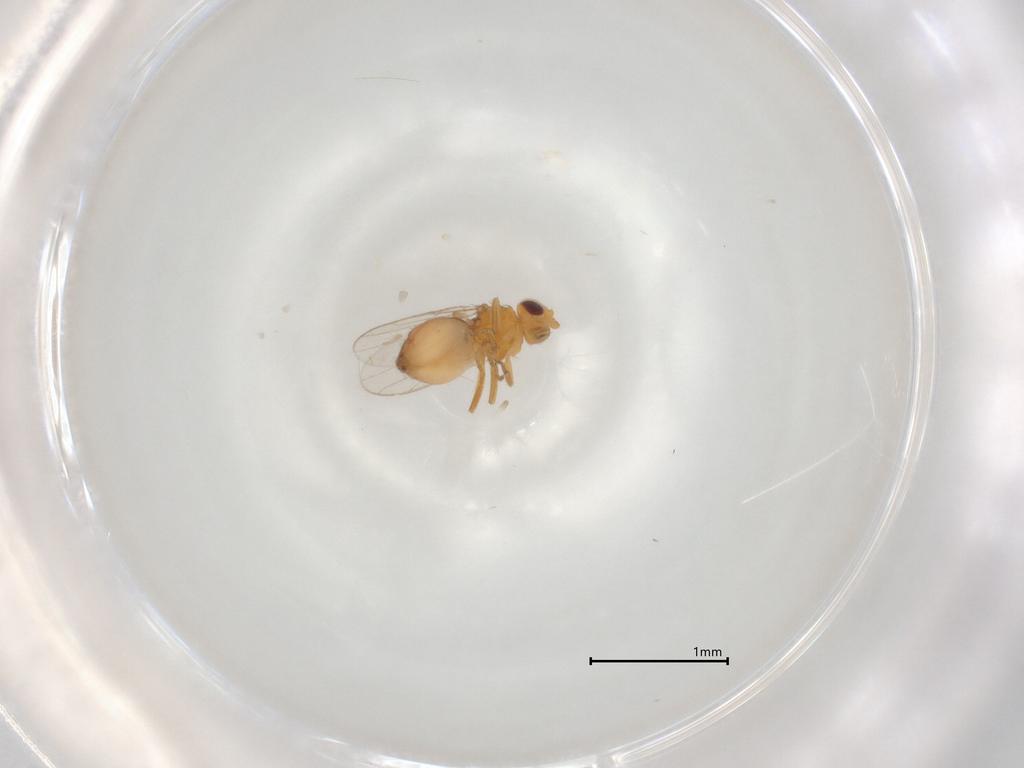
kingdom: Animalia
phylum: Arthropoda
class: Insecta
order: Diptera
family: Chloropidae
